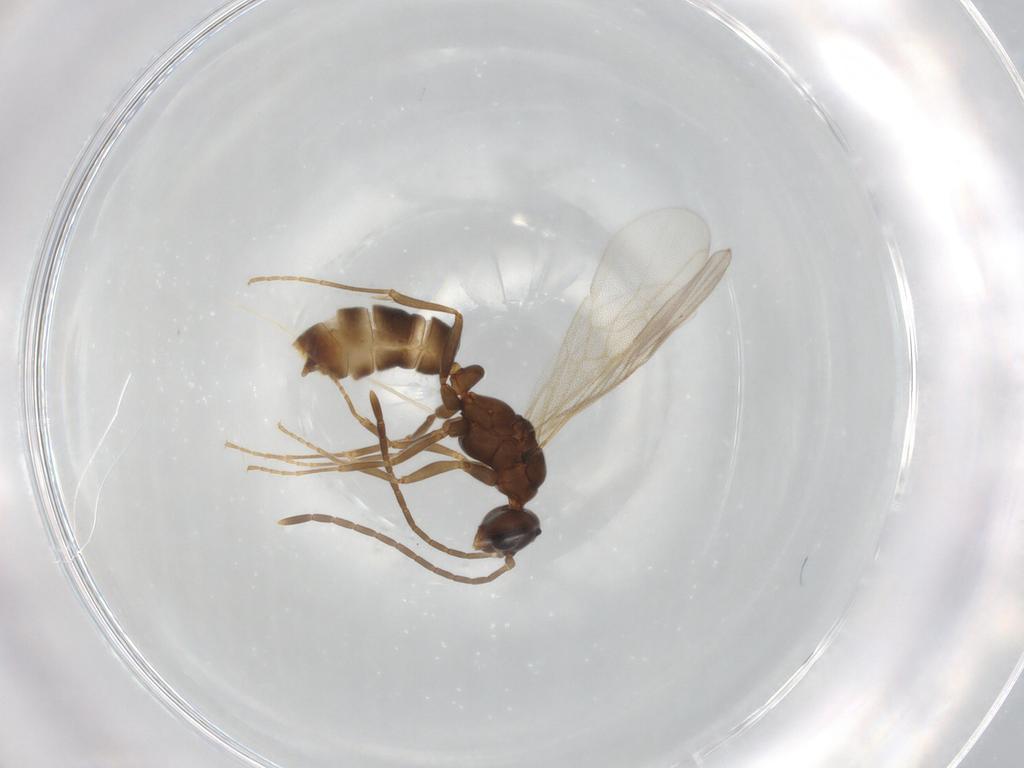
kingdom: Animalia
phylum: Arthropoda
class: Insecta
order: Hymenoptera
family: Formicidae
